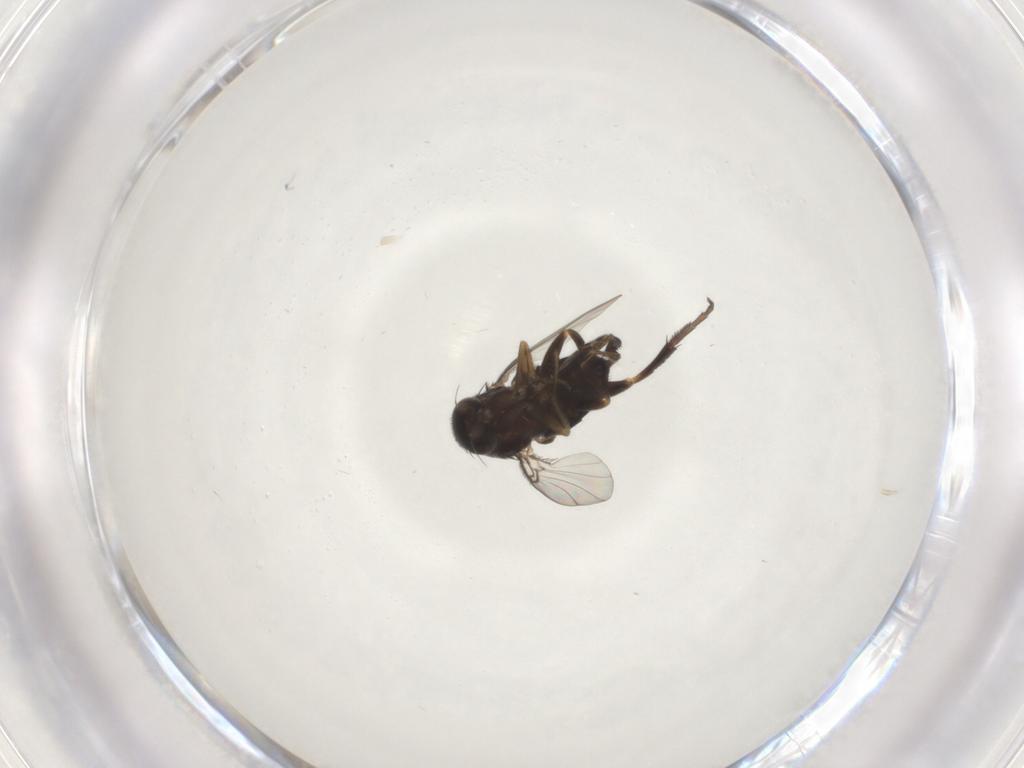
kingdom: Animalia
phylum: Arthropoda
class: Insecta
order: Diptera
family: Phoridae
